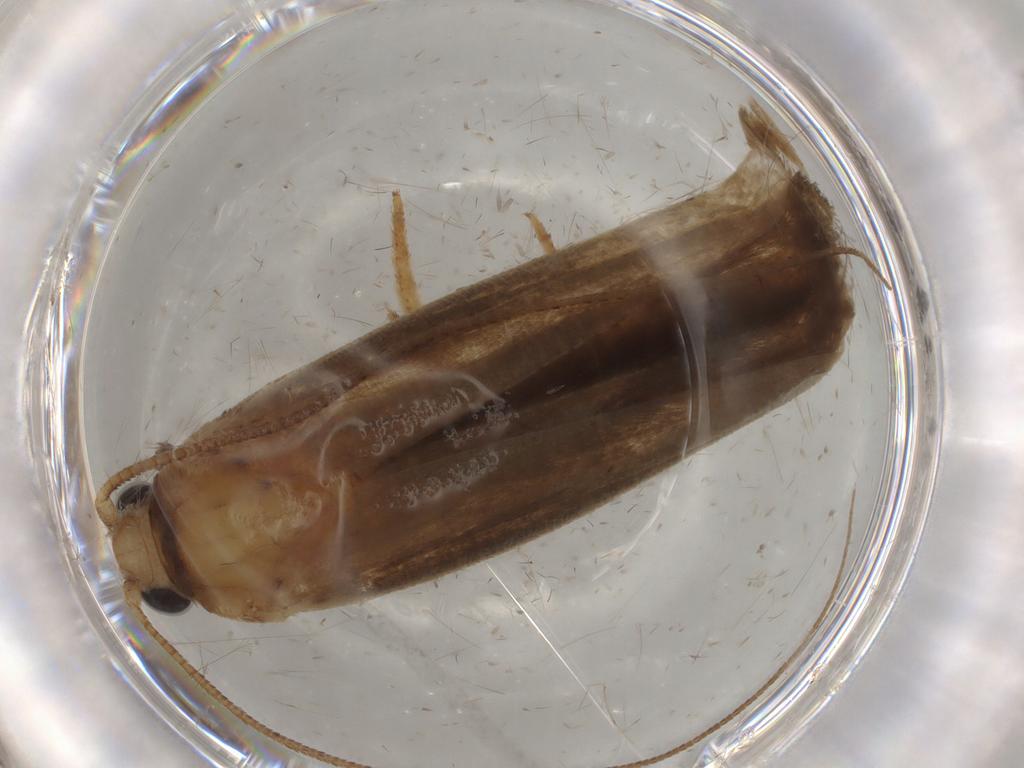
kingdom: Animalia
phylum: Arthropoda
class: Insecta
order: Lepidoptera
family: Yponomeutidae
